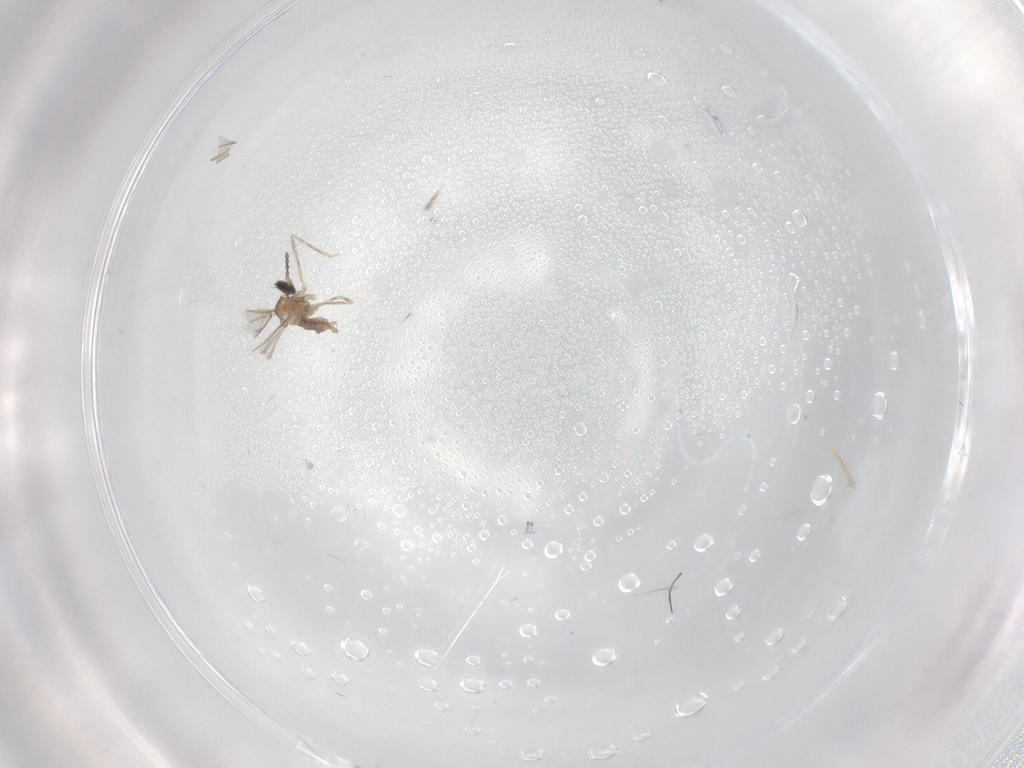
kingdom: Animalia
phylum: Arthropoda
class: Insecta
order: Diptera
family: Cecidomyiidae
